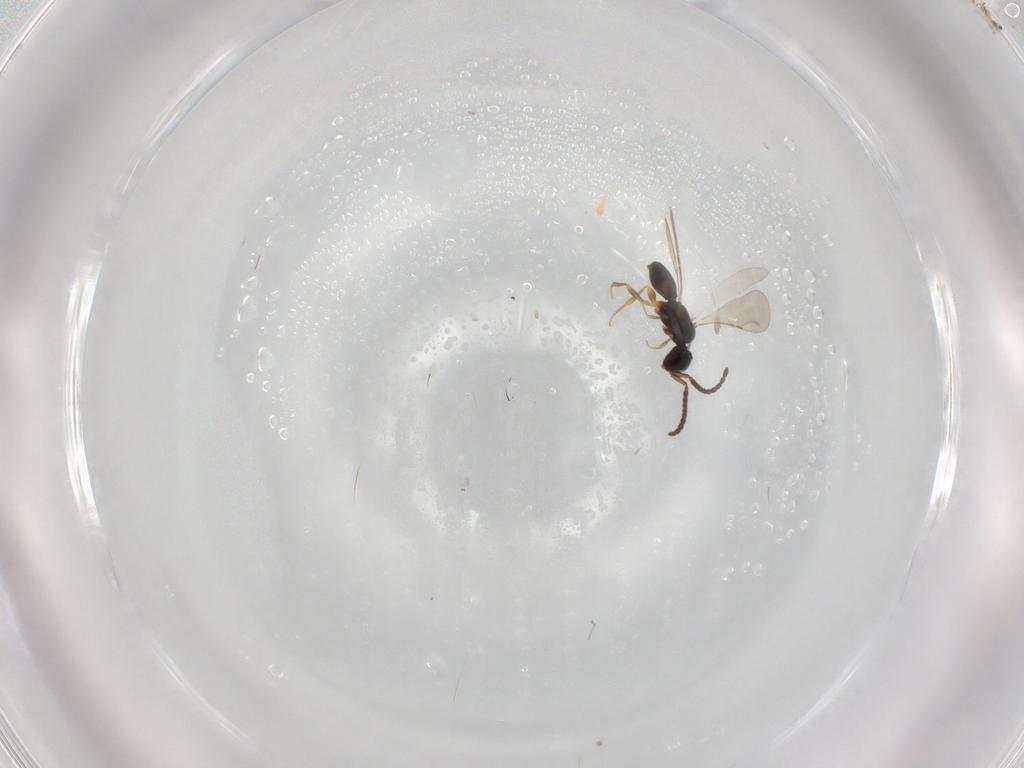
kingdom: Animalia
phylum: Arthropoda
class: Insecta
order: Hymenoptera
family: Ceraphronidae
